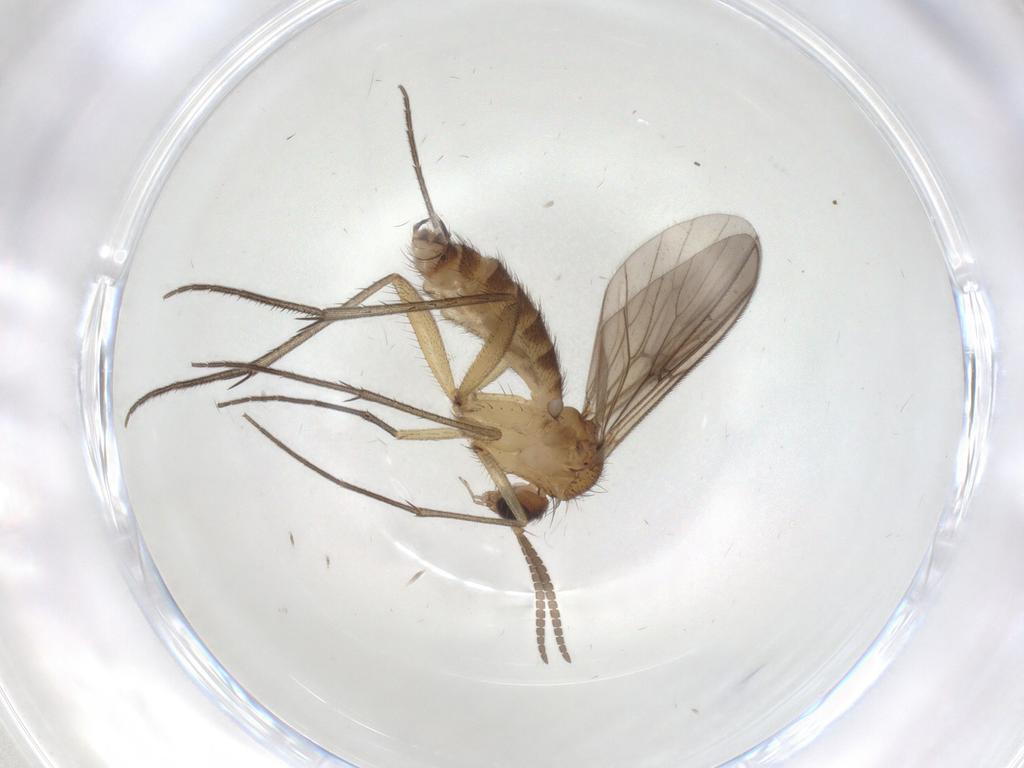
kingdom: Animalia
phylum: Arthropoda
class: Insecta
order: Diptera
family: Mycetophilidae
